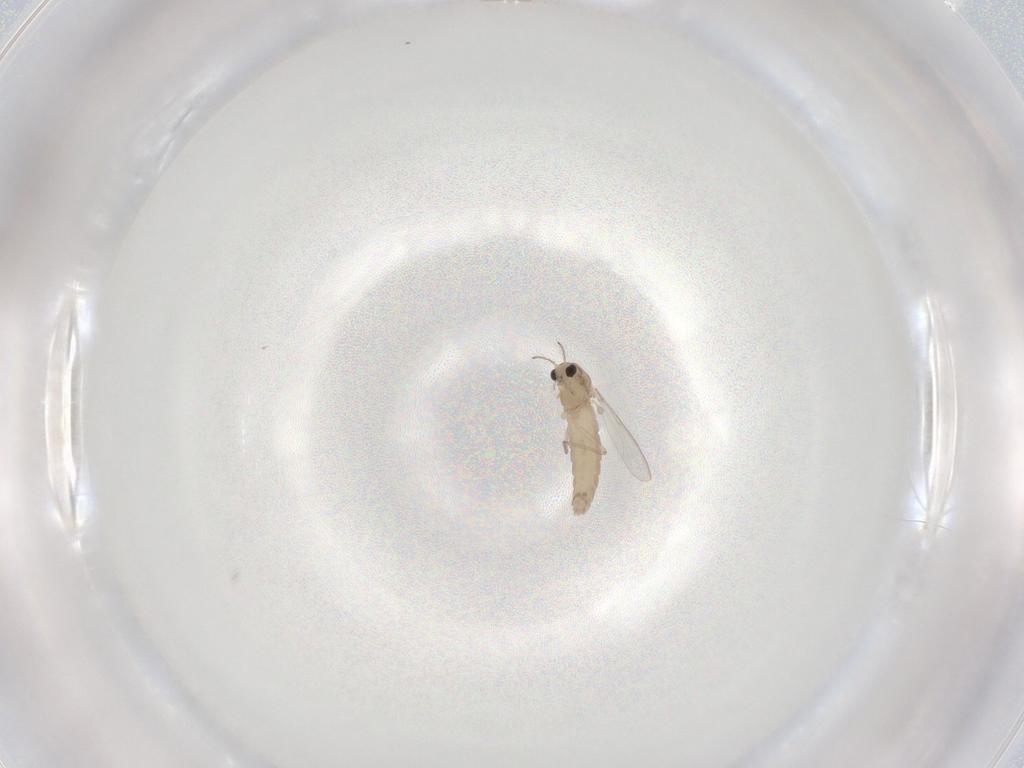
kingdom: Animalia
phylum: Arthropoda
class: Insecta
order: Diptera
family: Chironomidae
